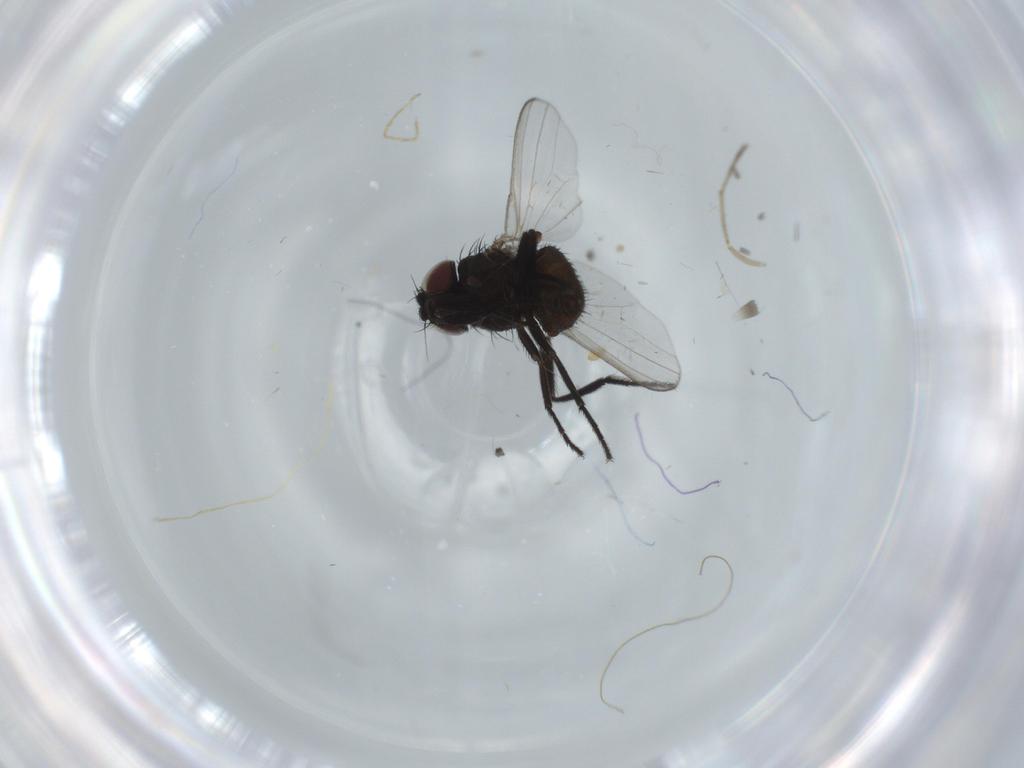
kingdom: Animalia
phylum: Arthropoda
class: Insecta
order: Diptera
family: Milichiidae
